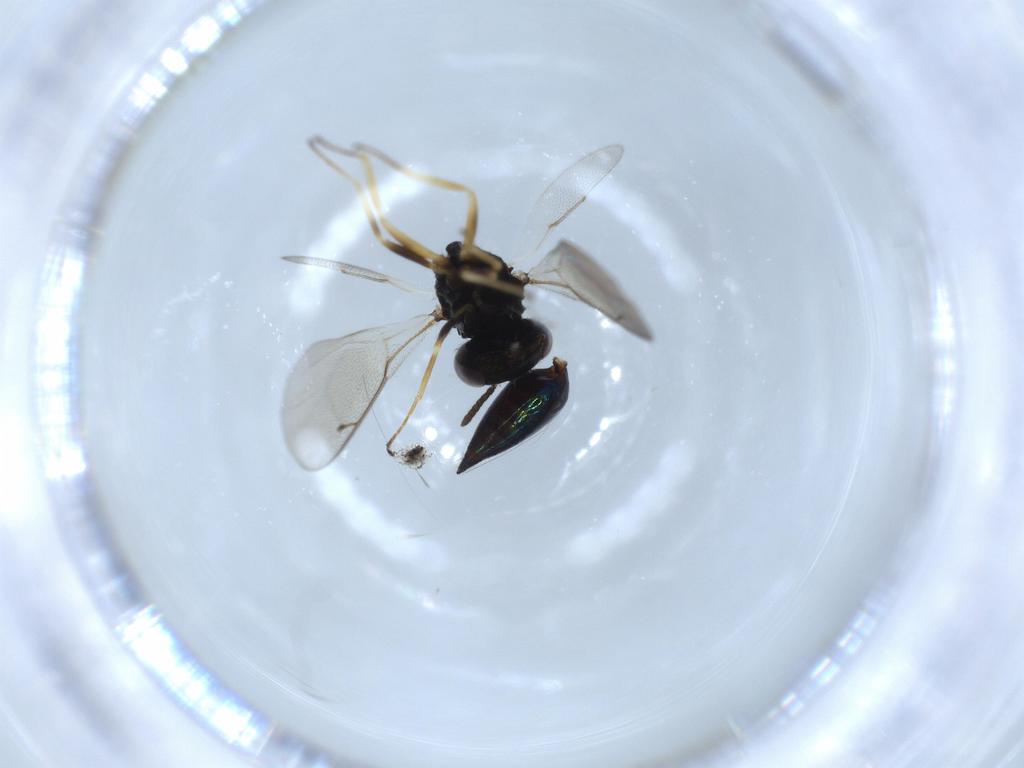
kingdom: Animalia
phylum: Arthropoda
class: Insecta
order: Hymenoptera
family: Pteromalidae
